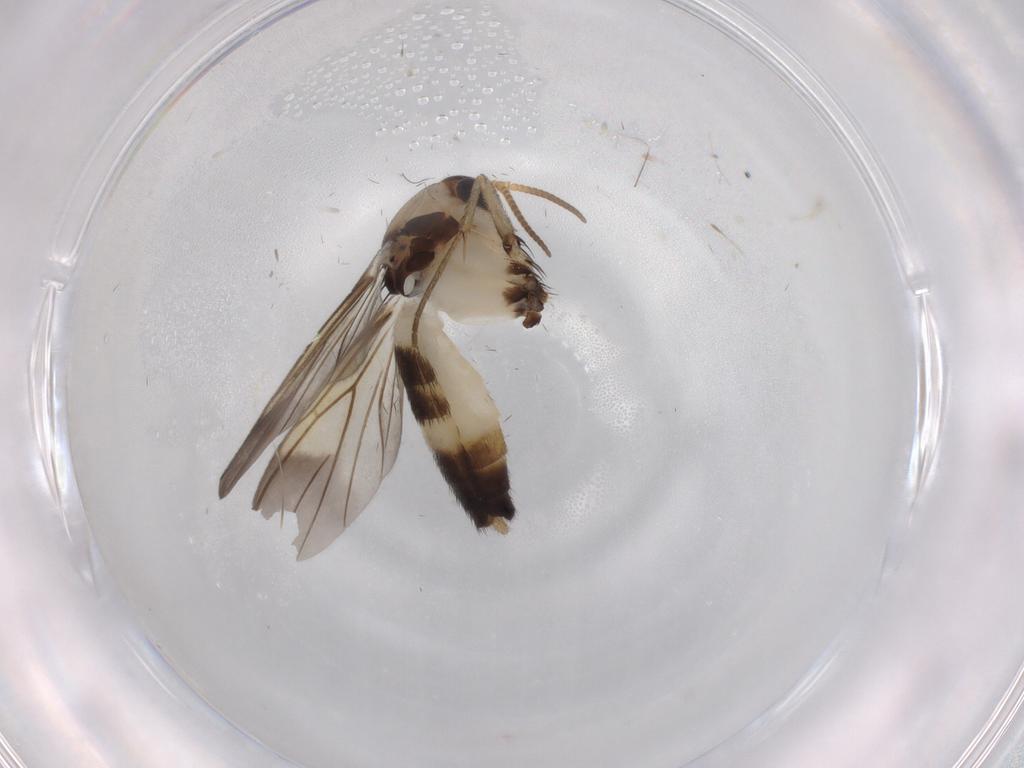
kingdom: Animalia
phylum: Arthropoda
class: Insecta
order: Diptera
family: Mycetophilidae
